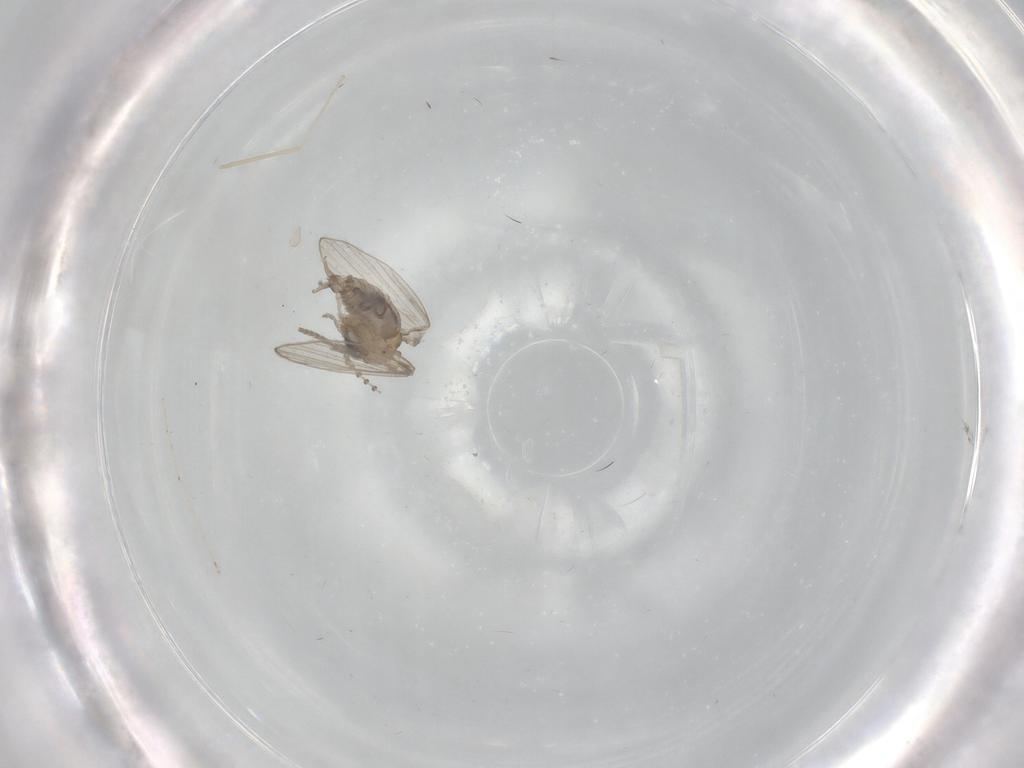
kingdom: Animalia
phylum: Arthropoda
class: Insecta
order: Diptera
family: Psychodidae
